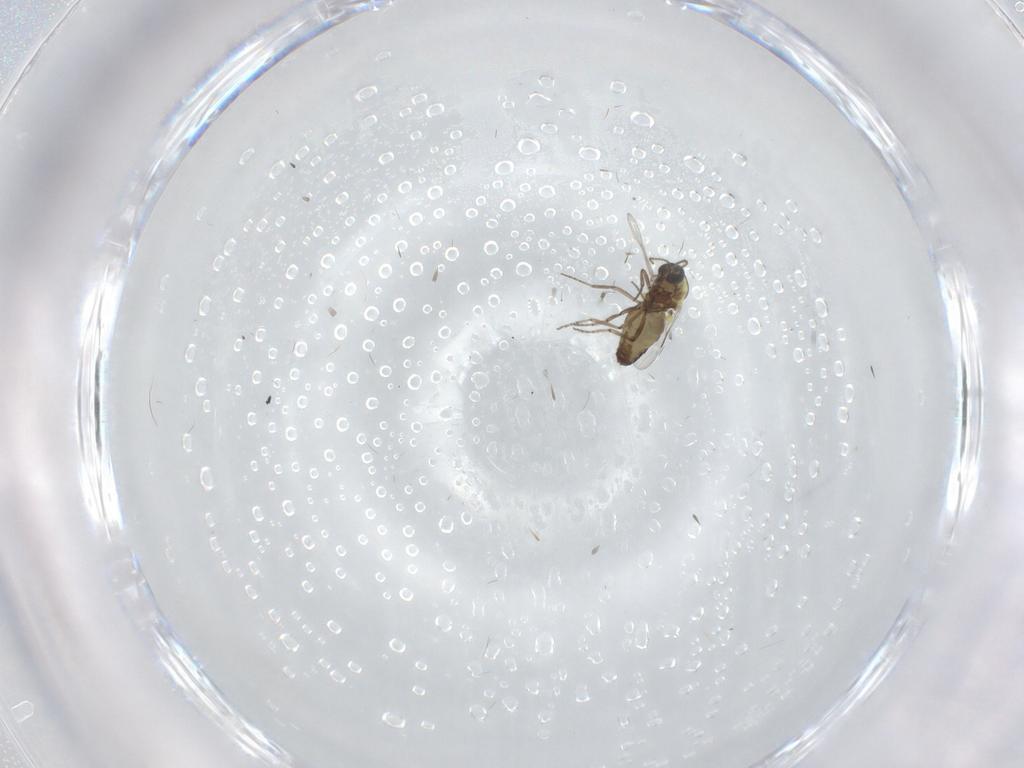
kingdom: Animalia
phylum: Arthropoda
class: Insecta
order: Diptera
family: Ceratopogonidae
